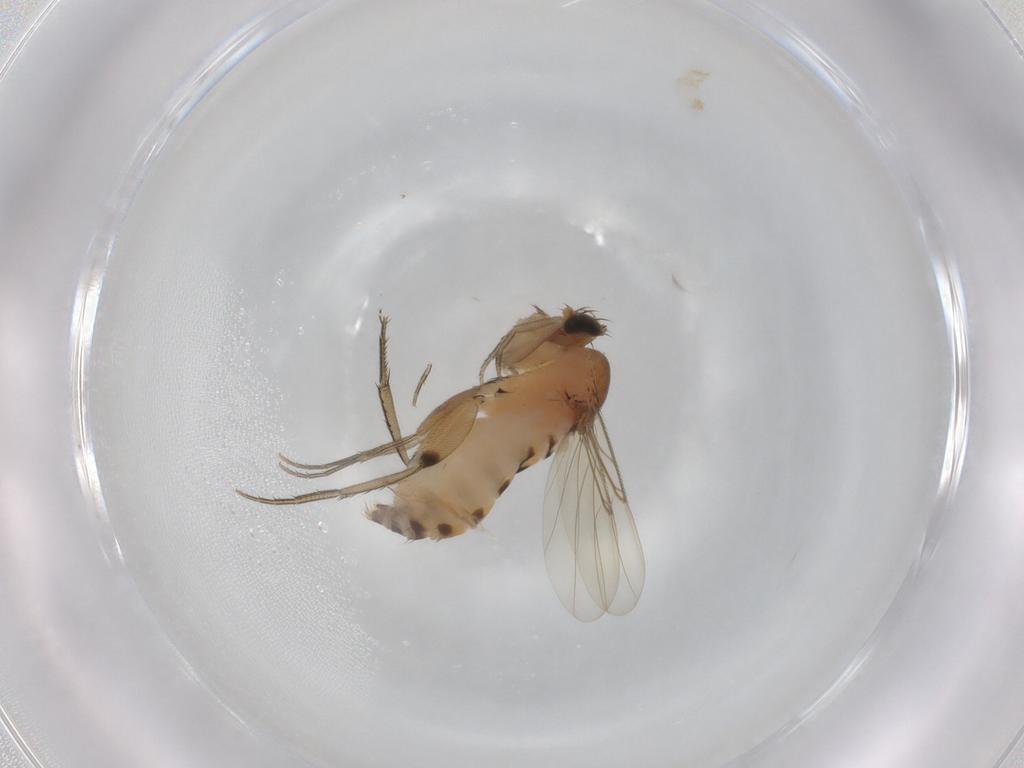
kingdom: Animalia
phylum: Arthropoda
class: Insecta
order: Diptera
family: Phoridae
